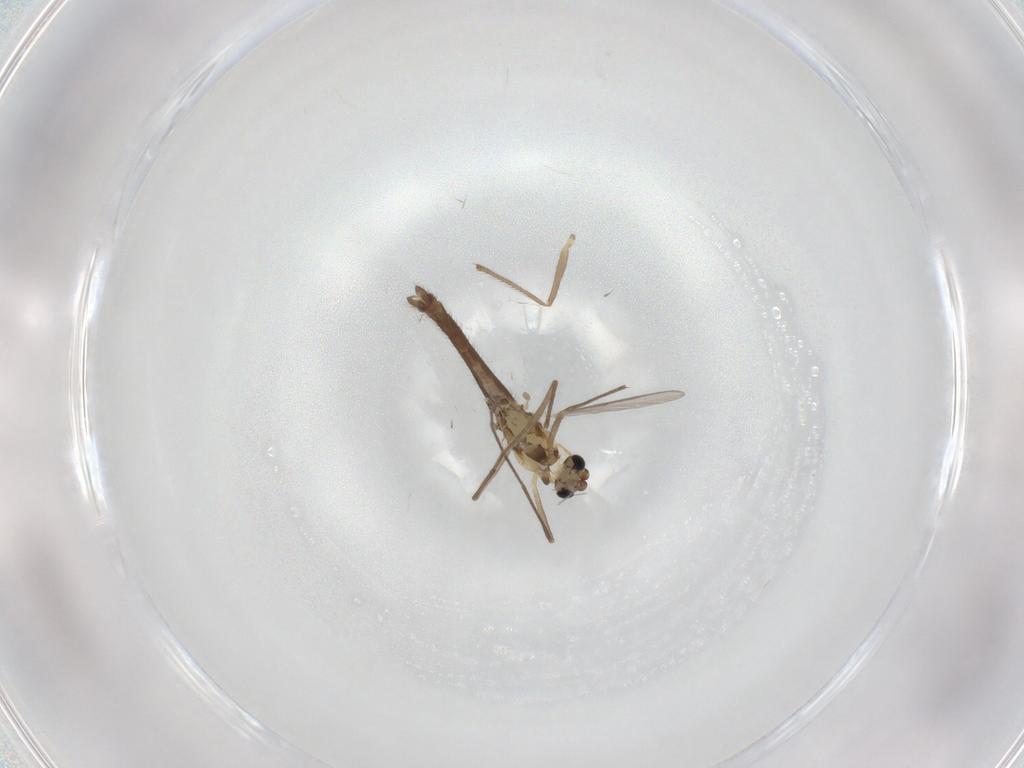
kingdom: Animalia
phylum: Arthropoda
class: Insecta
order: Diptera
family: Chironomidae
